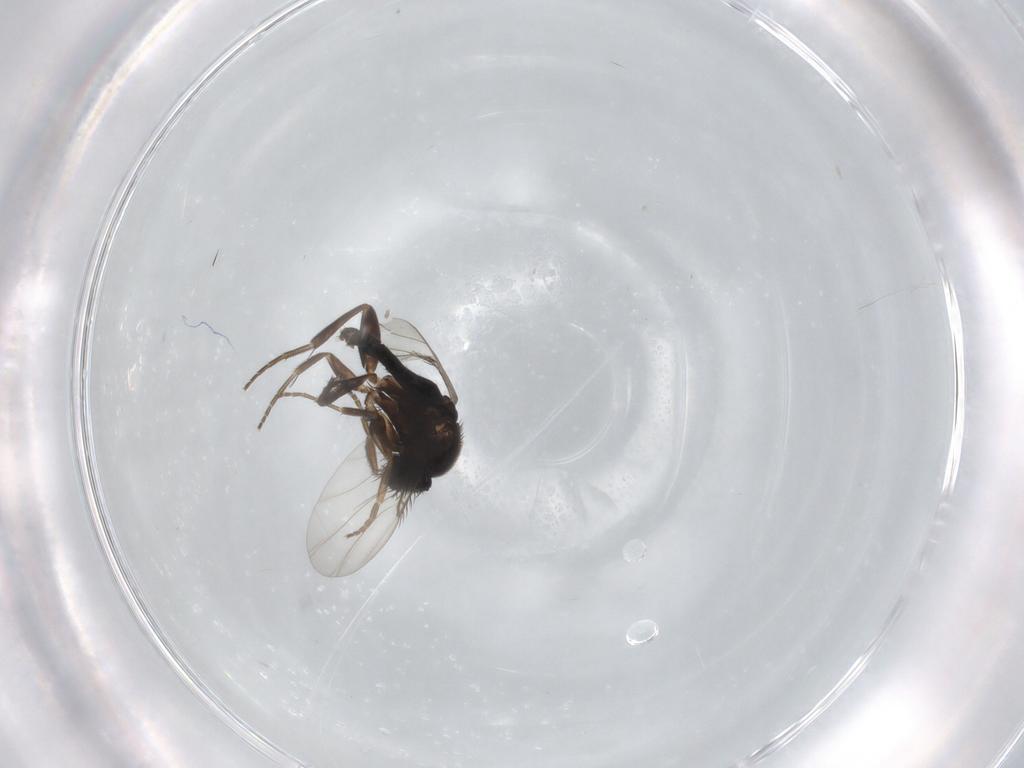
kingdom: Animalia
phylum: Arthropoda
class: Insecta
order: Diptera
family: Phoridae
